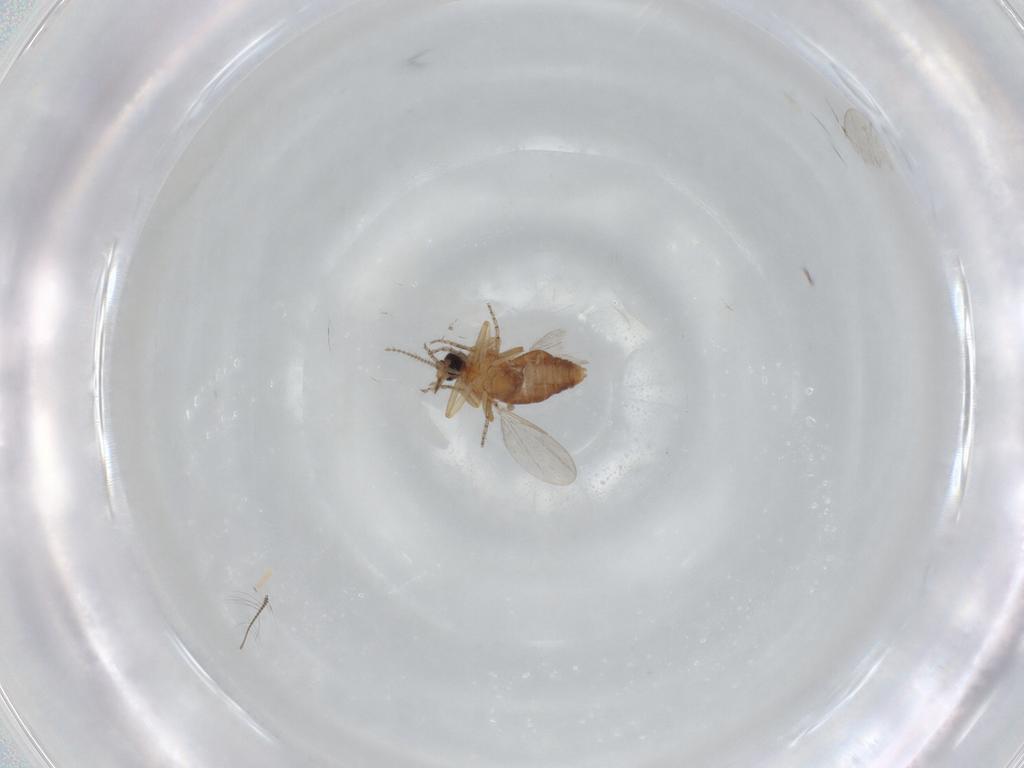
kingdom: Animalia
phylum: Arthropoda
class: Insecta
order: Diptera
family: Ceratopogonidae
